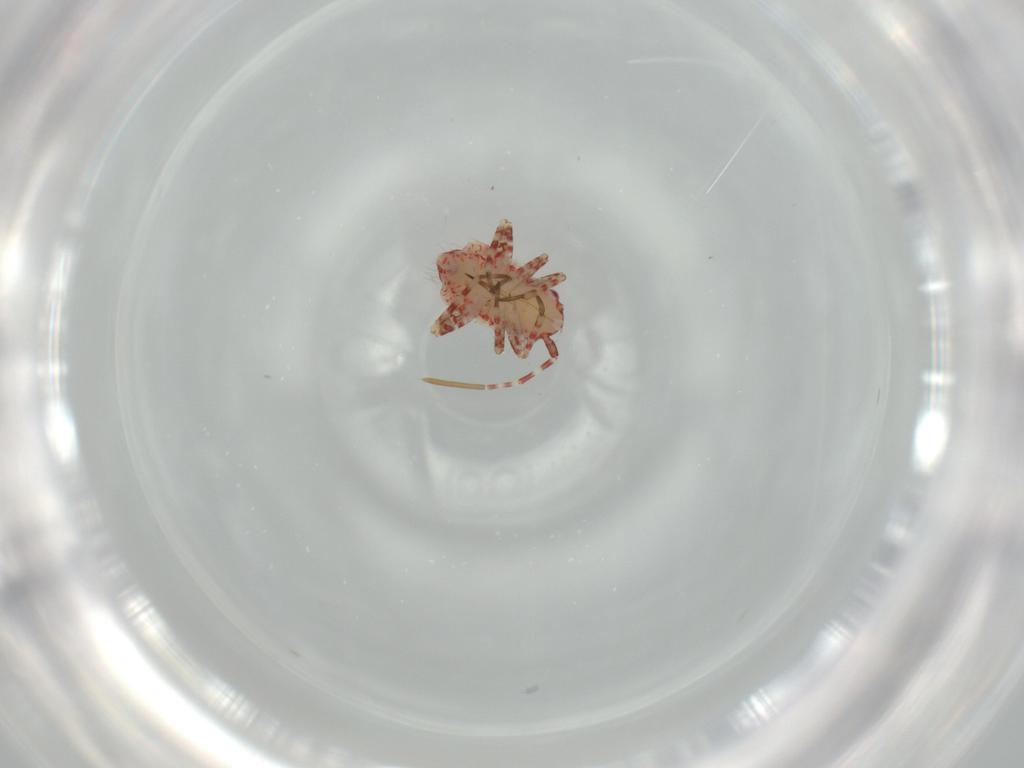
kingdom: Animalia
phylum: Arthropoda
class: Insecta
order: Hemiptera
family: Miridae
